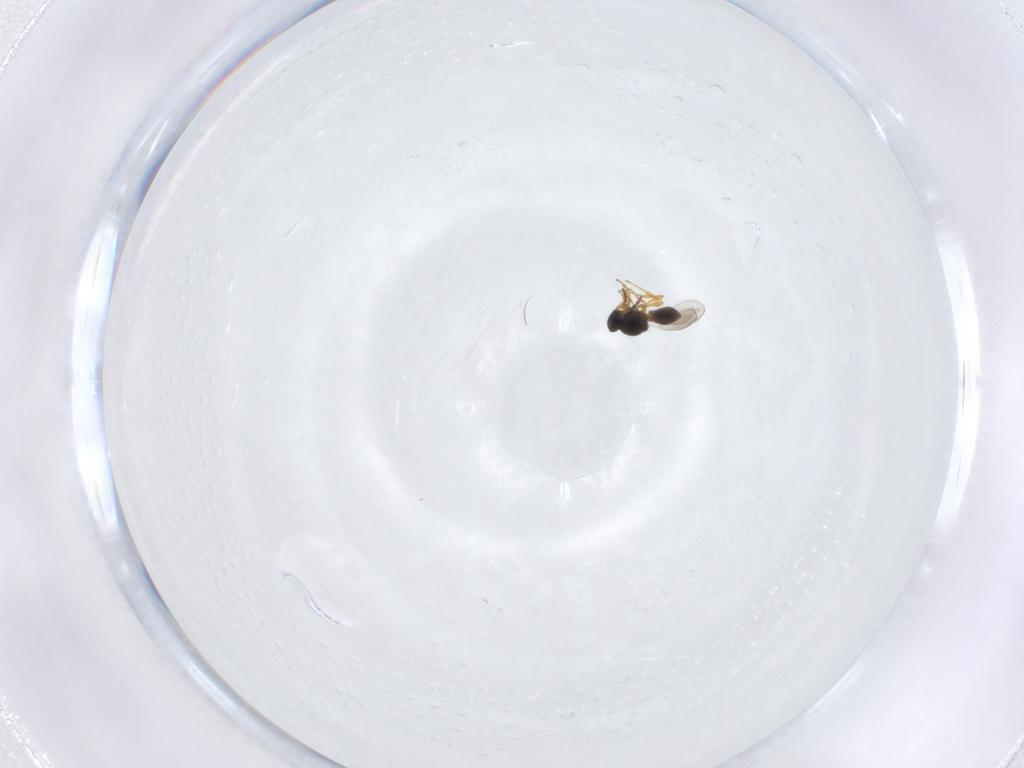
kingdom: Animalia
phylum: Arthropoda
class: Insecta
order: Hymenoptera
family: Platygastridae
